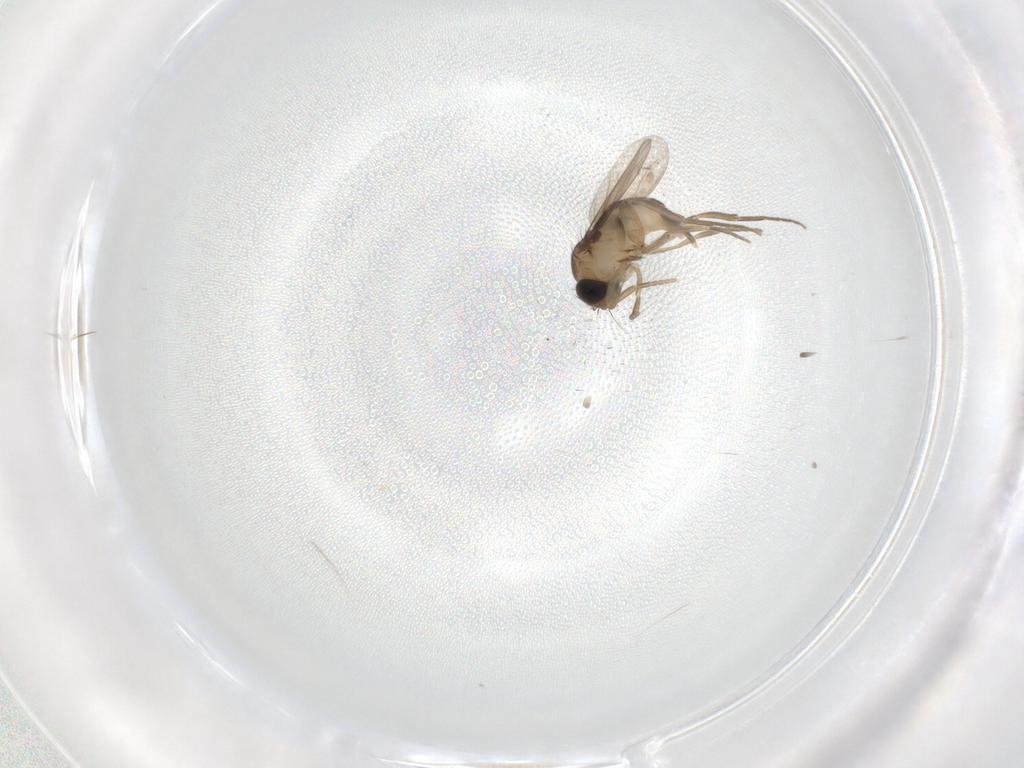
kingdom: Animalia
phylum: Arthropoda
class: Insecta
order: Diptera
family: Phoridae
